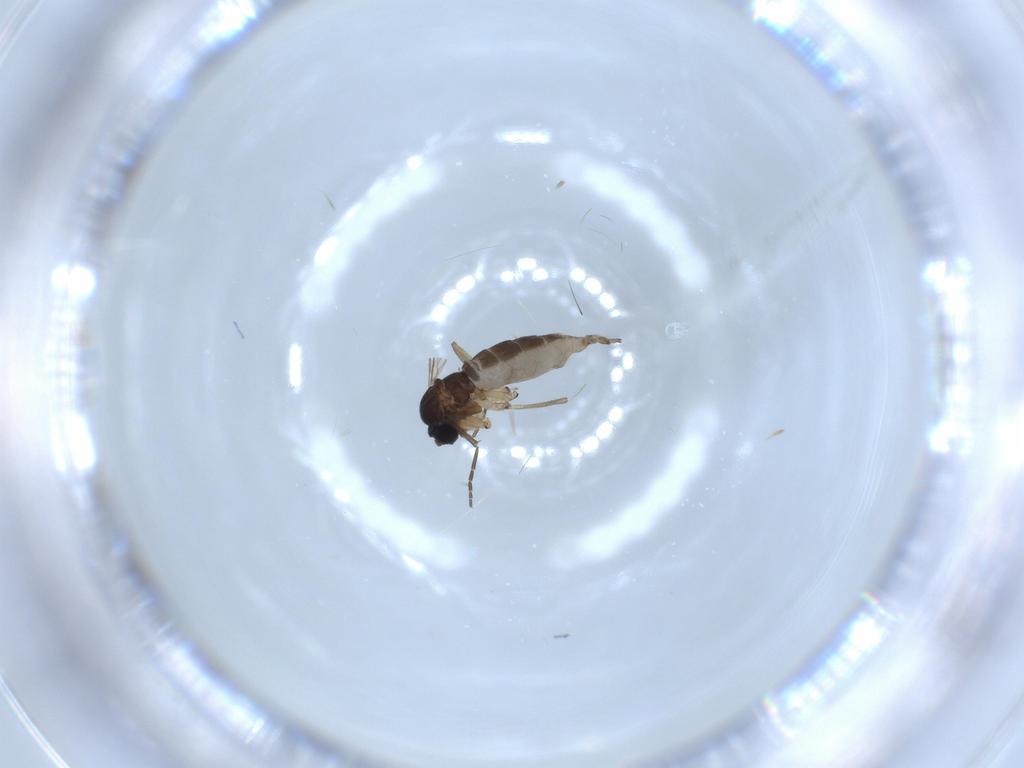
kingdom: Animalia
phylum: Arthropoda
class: Insecta
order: Diptera
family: Sciaridae
